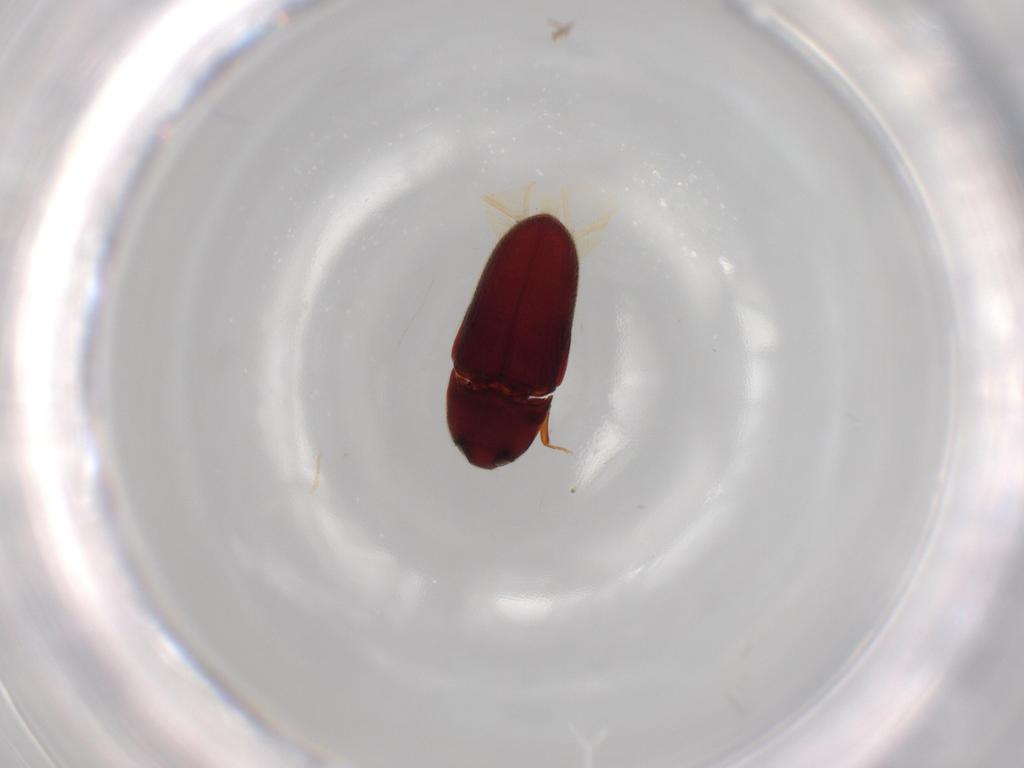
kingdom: Animalia
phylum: Arthropoda
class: Insecta
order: Coleoptera
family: Throscidae
